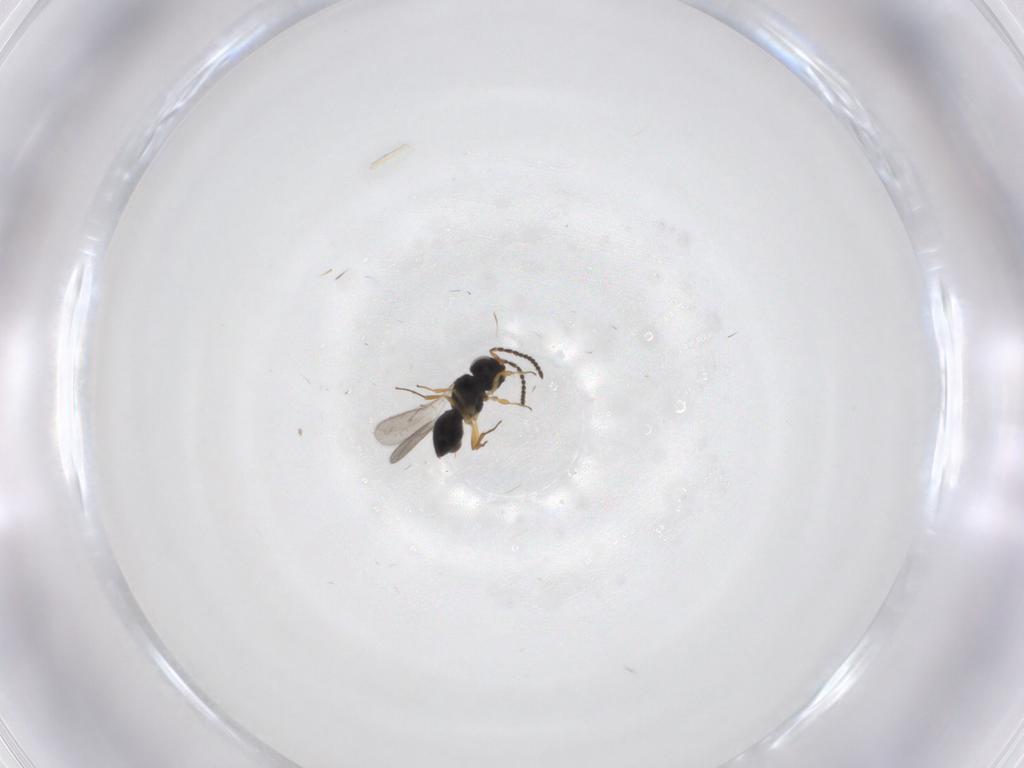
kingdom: Animalia
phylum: Arthropoda
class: Insecta
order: Hymenoptera
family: Scelionidae
